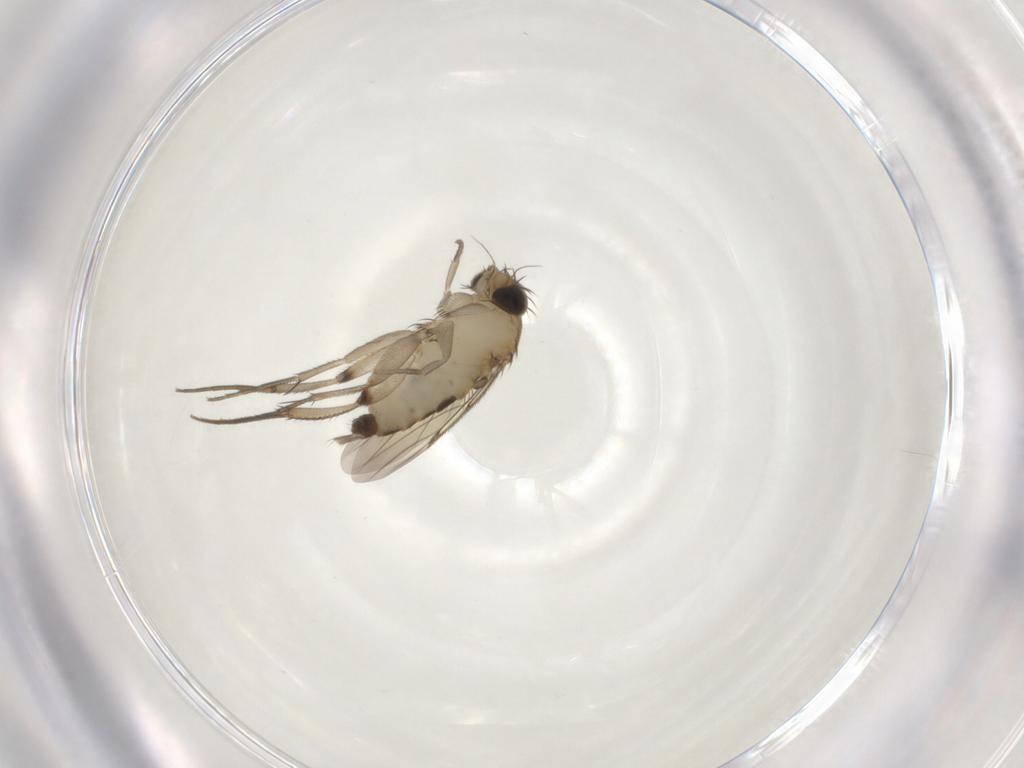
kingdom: Animalia
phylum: Arthropoda
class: Insecta
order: Diptera
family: Phoridae
